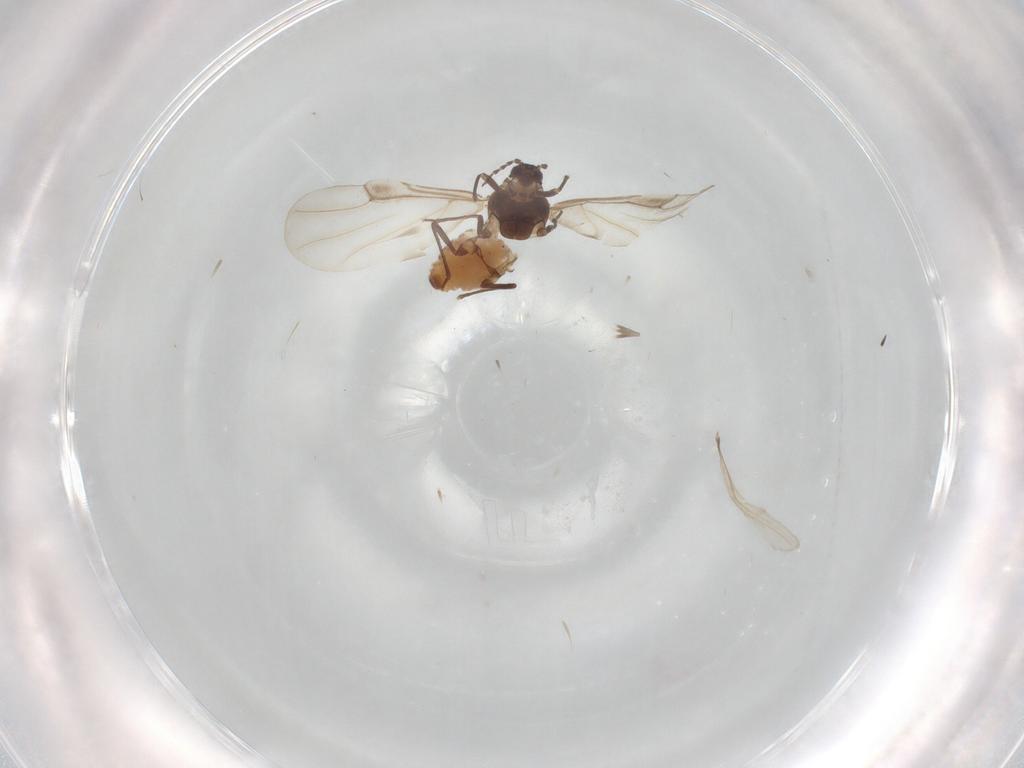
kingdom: Animalia
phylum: Arthropoda
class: Insecta
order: Hemiptera
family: Aphididae
